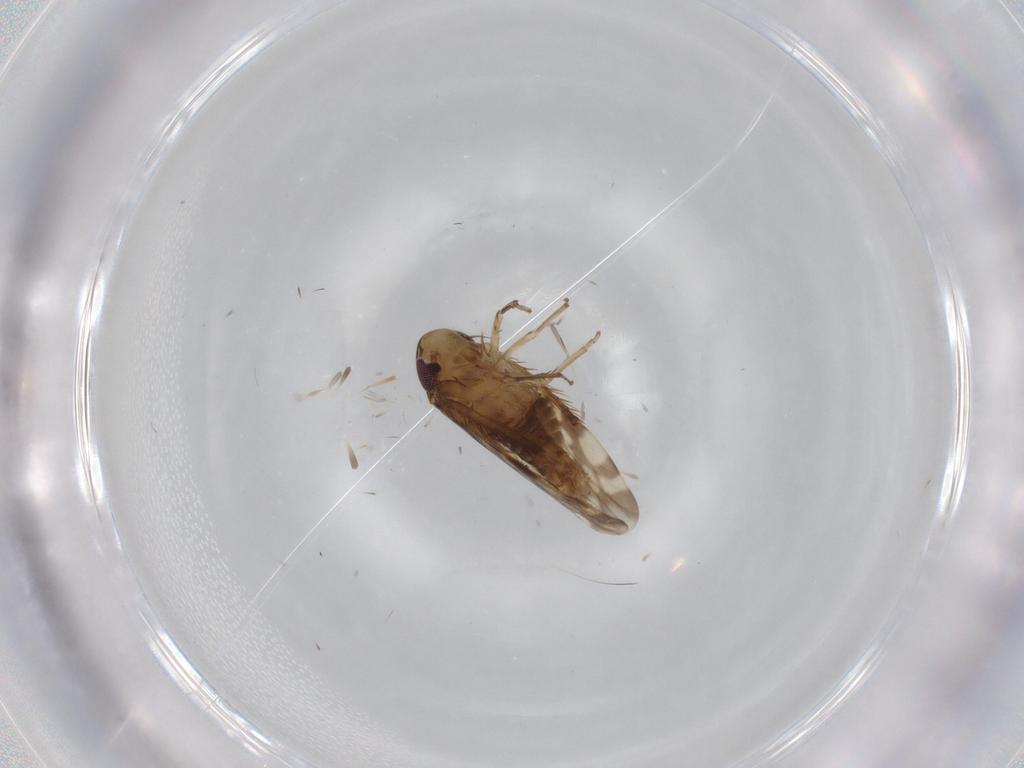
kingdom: Animalia
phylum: Arthropoda
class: Insecta
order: Hemiptera
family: Cicadellidae
